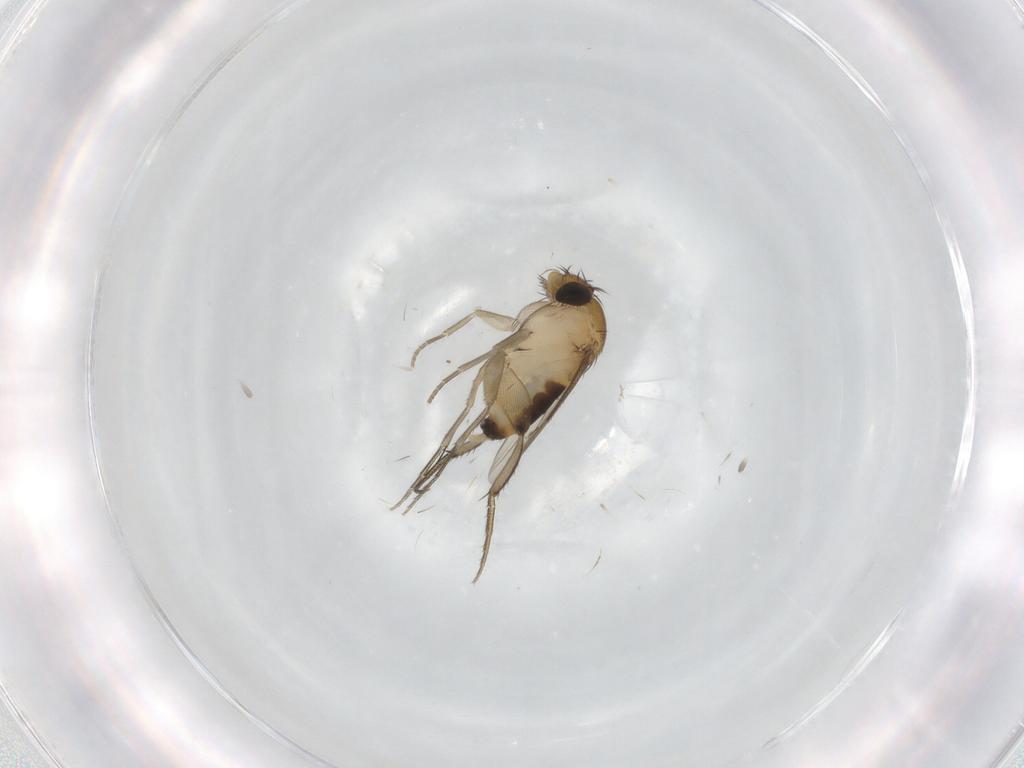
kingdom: Animalia
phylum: Arthropoda
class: Insecta
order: Diptera
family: Phoridae
